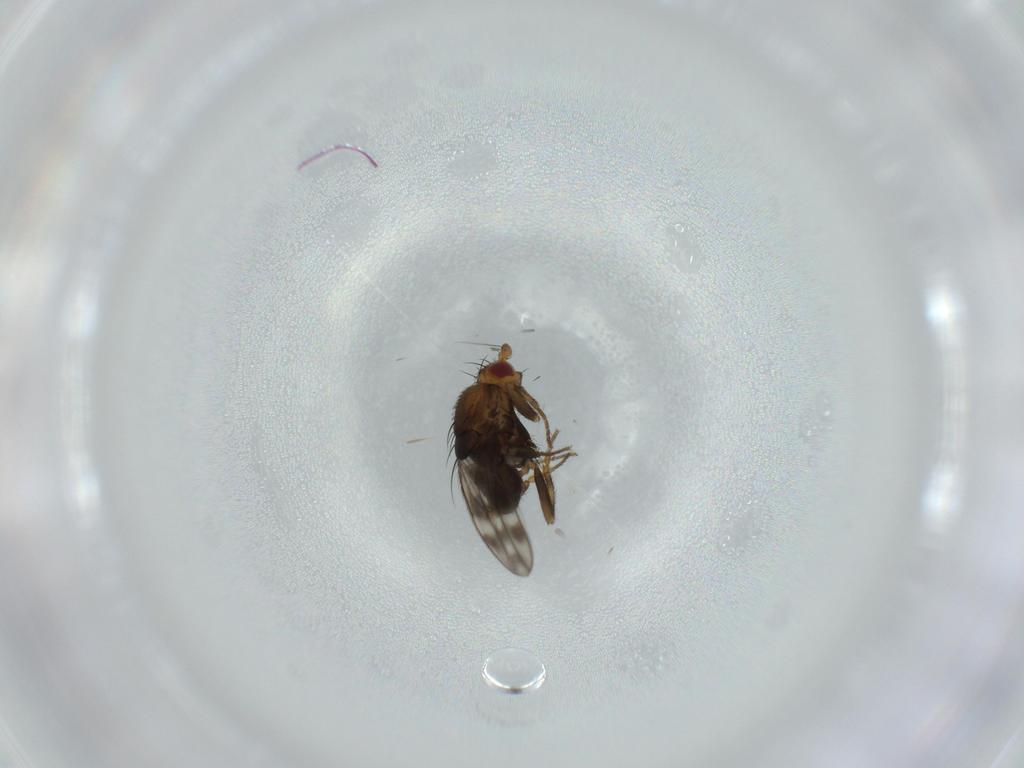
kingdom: Animalia
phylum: Arthropoda
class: Insecta
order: Diptera
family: Sphaeroceridae
